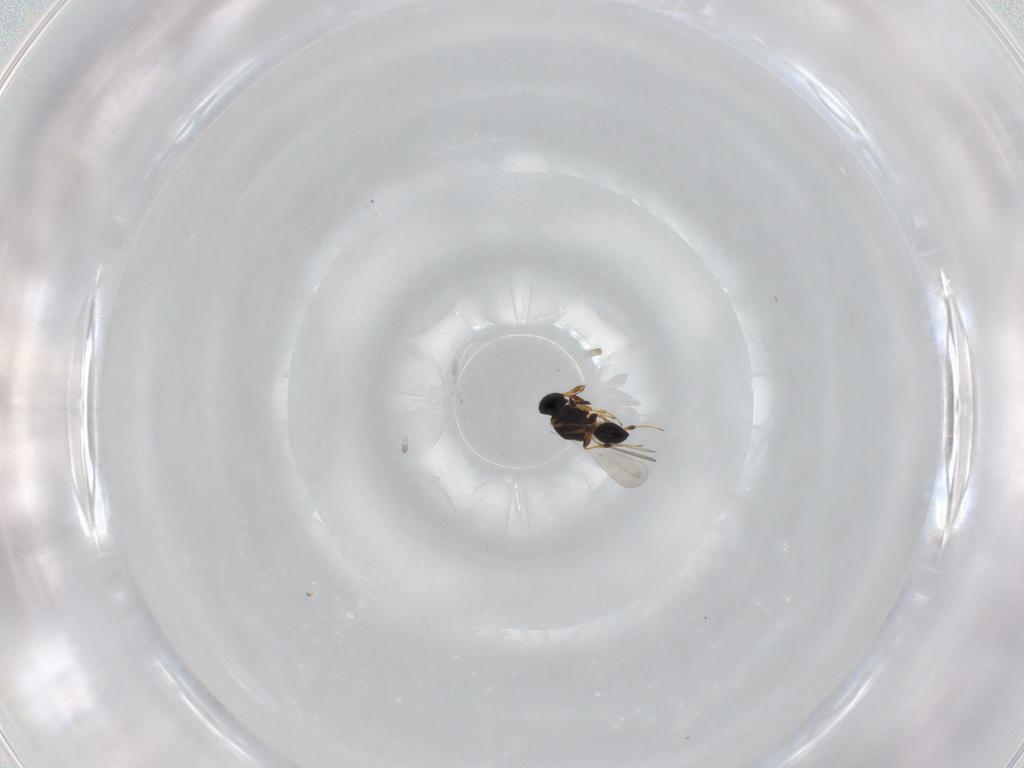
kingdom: Animalia
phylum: Arthropoda
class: Insecta
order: Hymenoptera
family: Platygastridae
